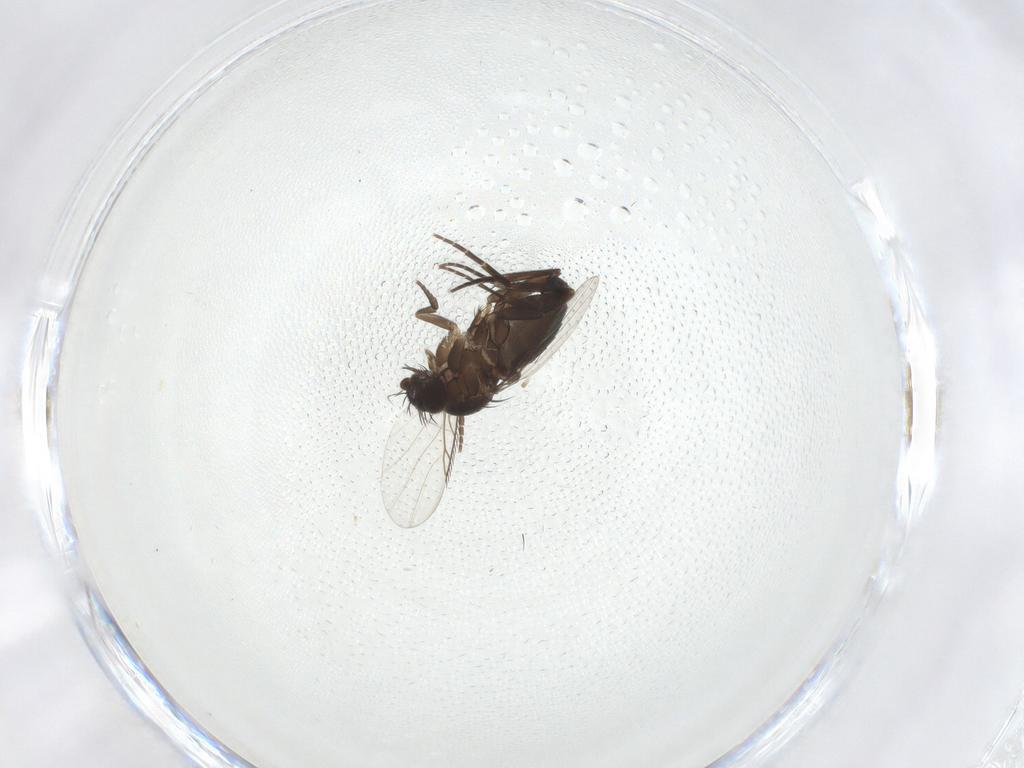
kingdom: Animalia
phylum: Arthropoda
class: Insecta
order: Diptera
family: Phoridae
